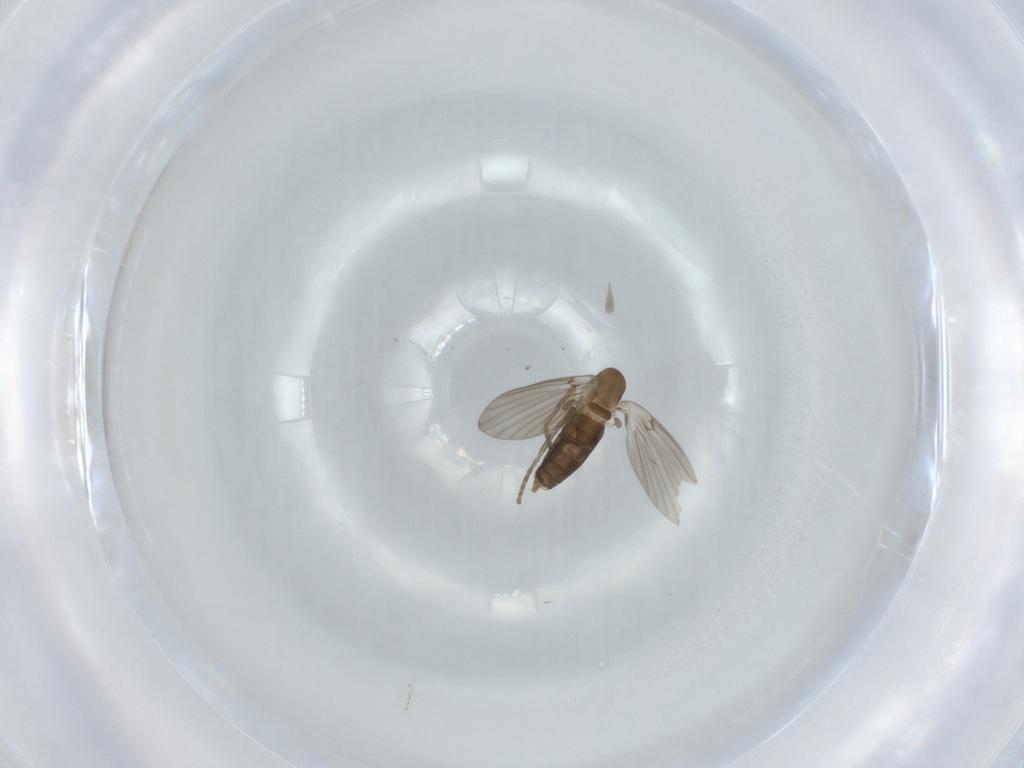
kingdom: Animalia
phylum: Arthropoda
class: Insecta
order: Diptera
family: Psychodidae
